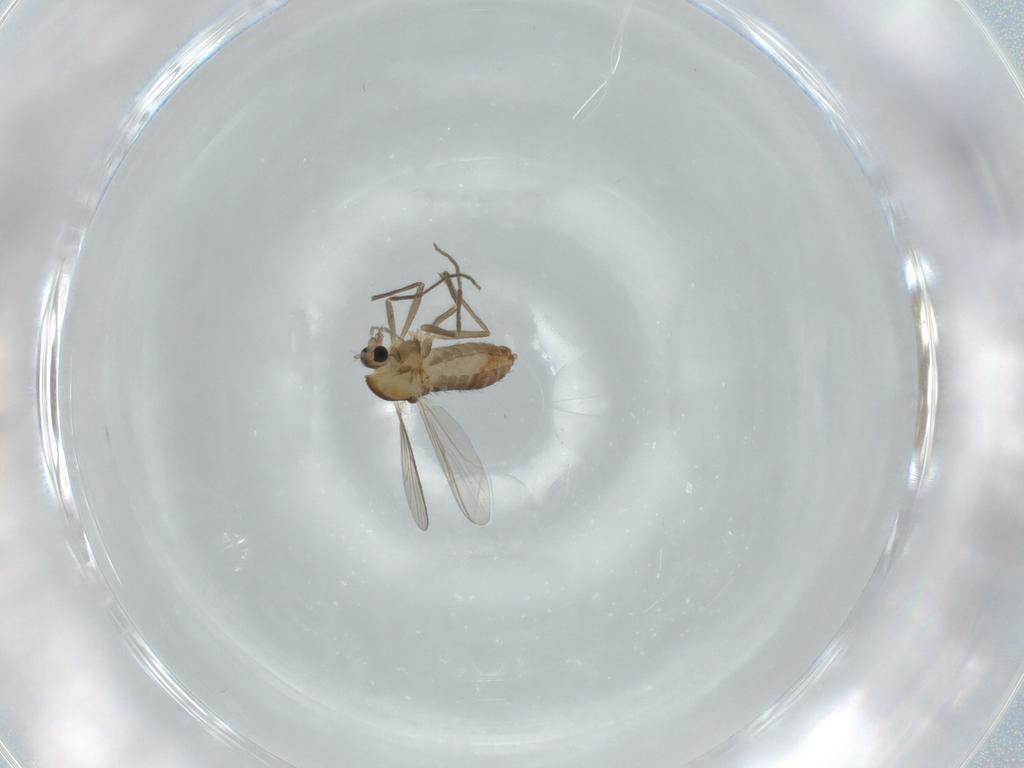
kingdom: Animalia
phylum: Arthropoda
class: Insecta
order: Diptera
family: Chironomidae
